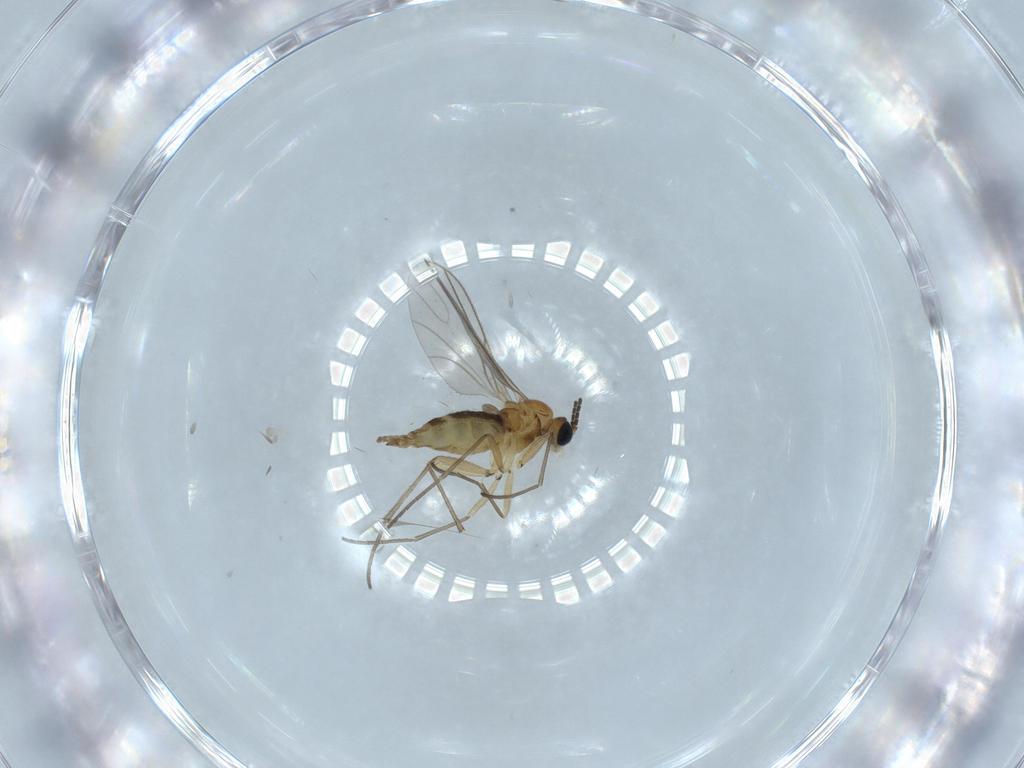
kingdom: Animalia
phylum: Arthropoda
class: Insecta
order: Diptera
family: Sciaridae
